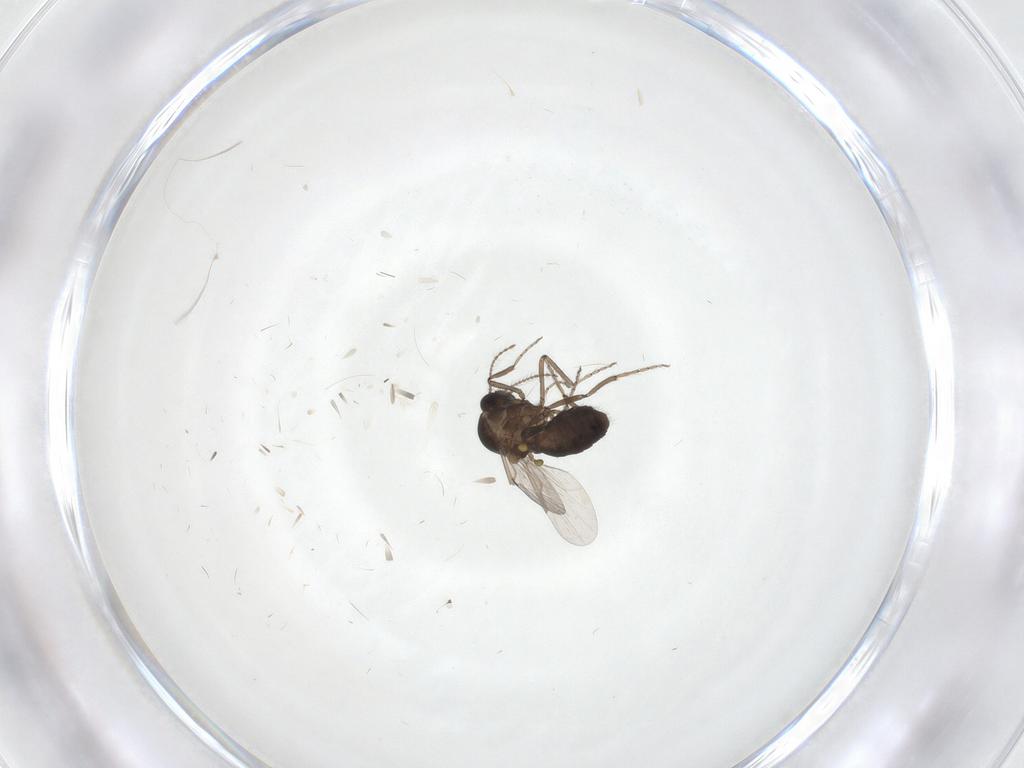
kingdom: Animalia
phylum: Arthropoda
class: Insecta
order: Diptera
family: Ceratopogonidae
